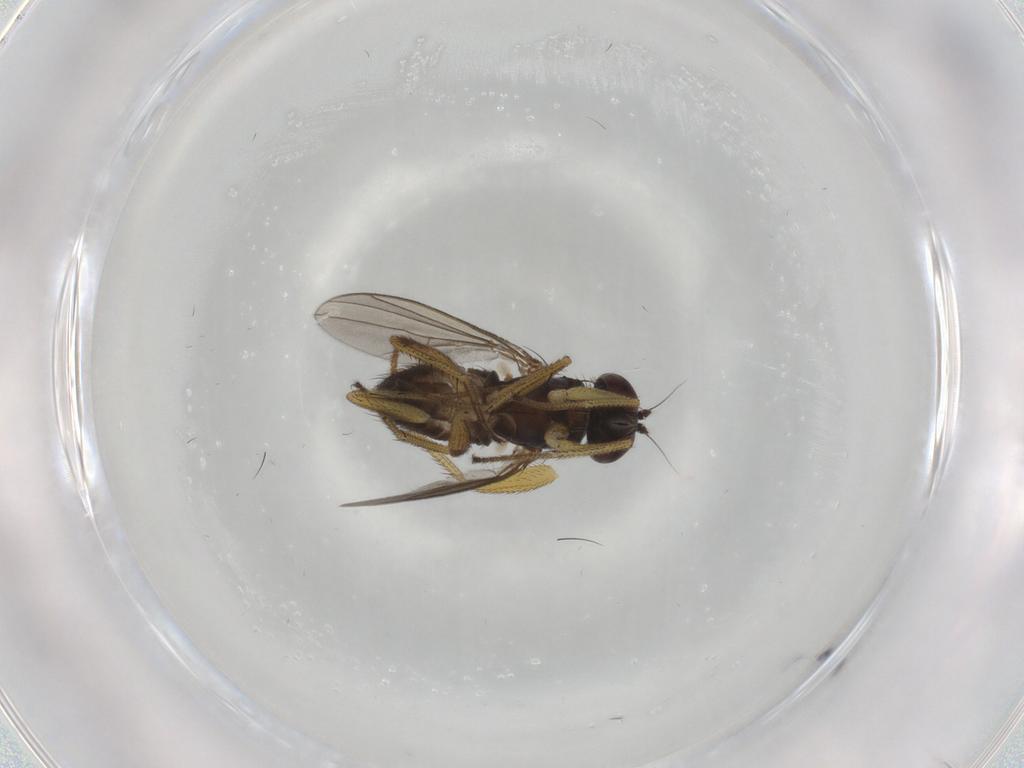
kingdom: Animalia
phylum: Arthropoda
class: Insecta
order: Diptera
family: Dolichopodidae
